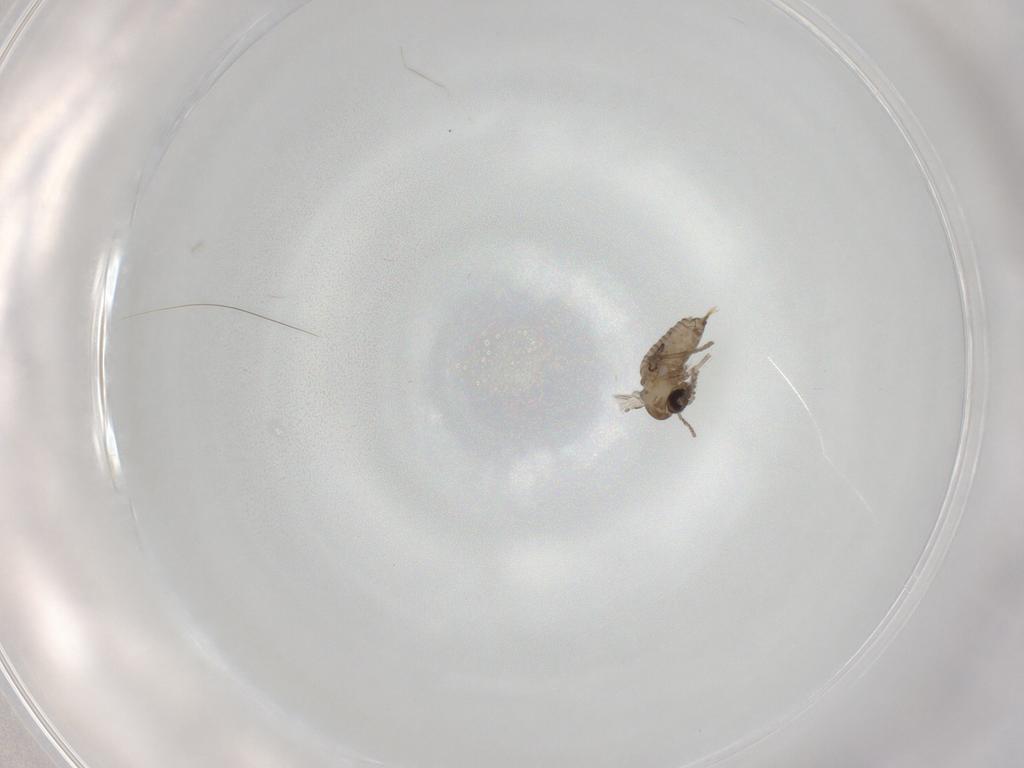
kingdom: Animalia
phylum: Arthropoda
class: Insecta
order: Diptera
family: Psychodidae
